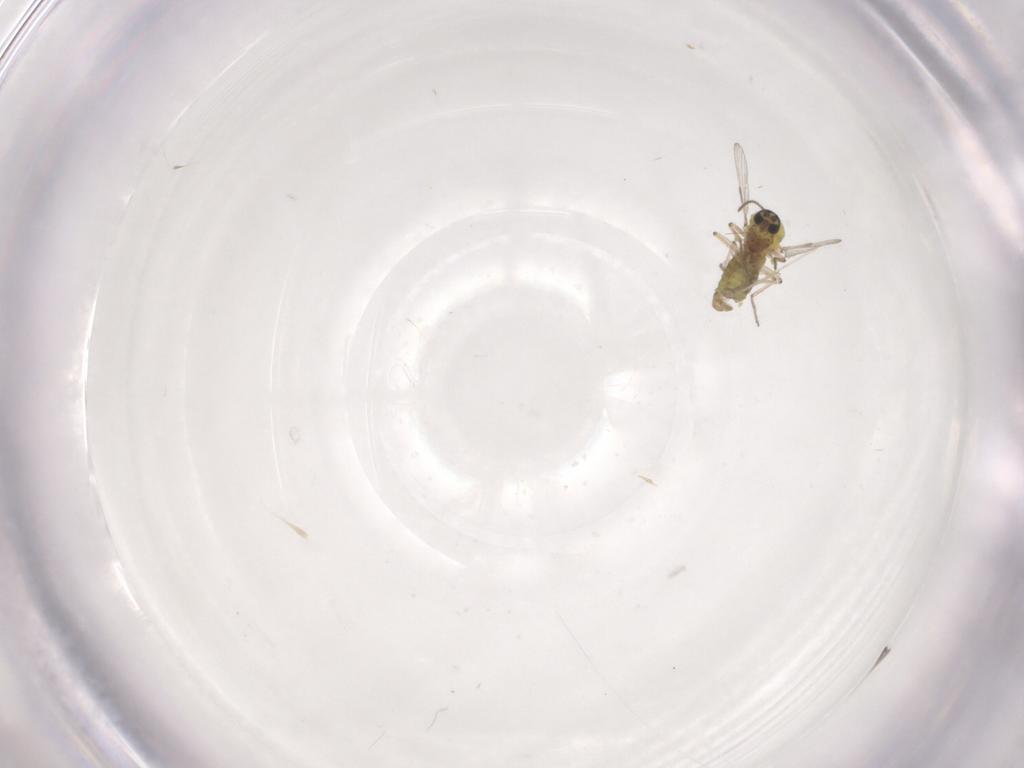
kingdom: Animalia
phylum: Arthropoda
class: Insecta
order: Diptera
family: Ceratopogonidae
